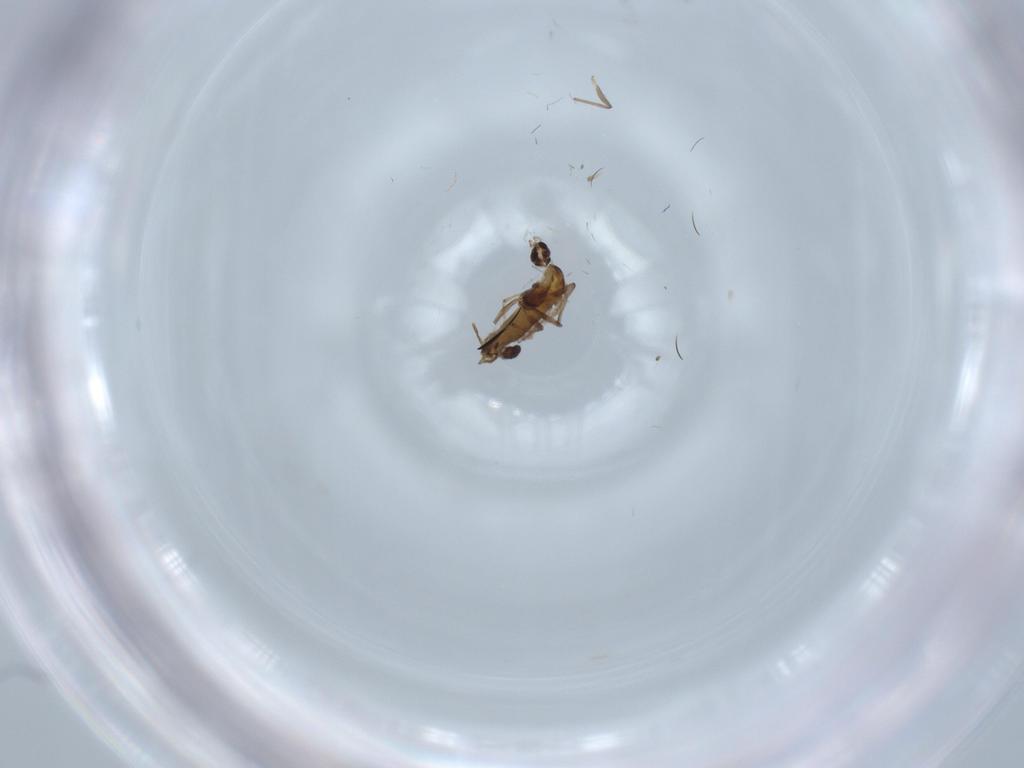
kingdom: Animalia
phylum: Arthropoda
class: Insecta
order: Diptera
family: Chironomidae
